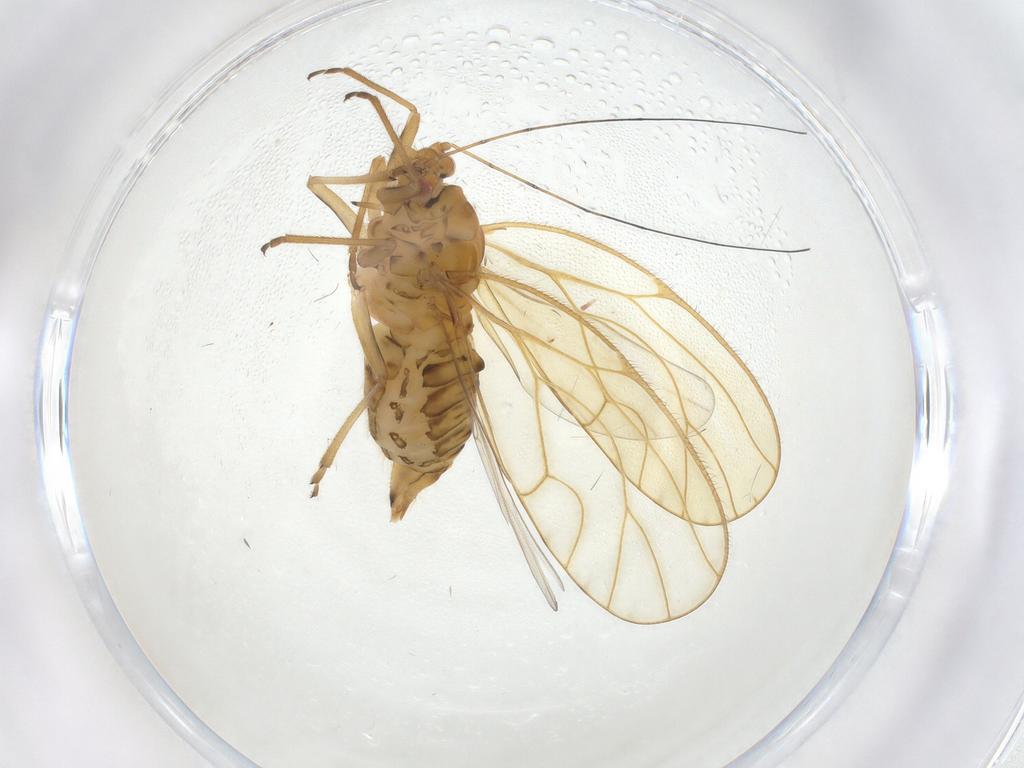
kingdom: Animalia
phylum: Arthropoda
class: Insecta
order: Hemiptera
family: Psyllidae
